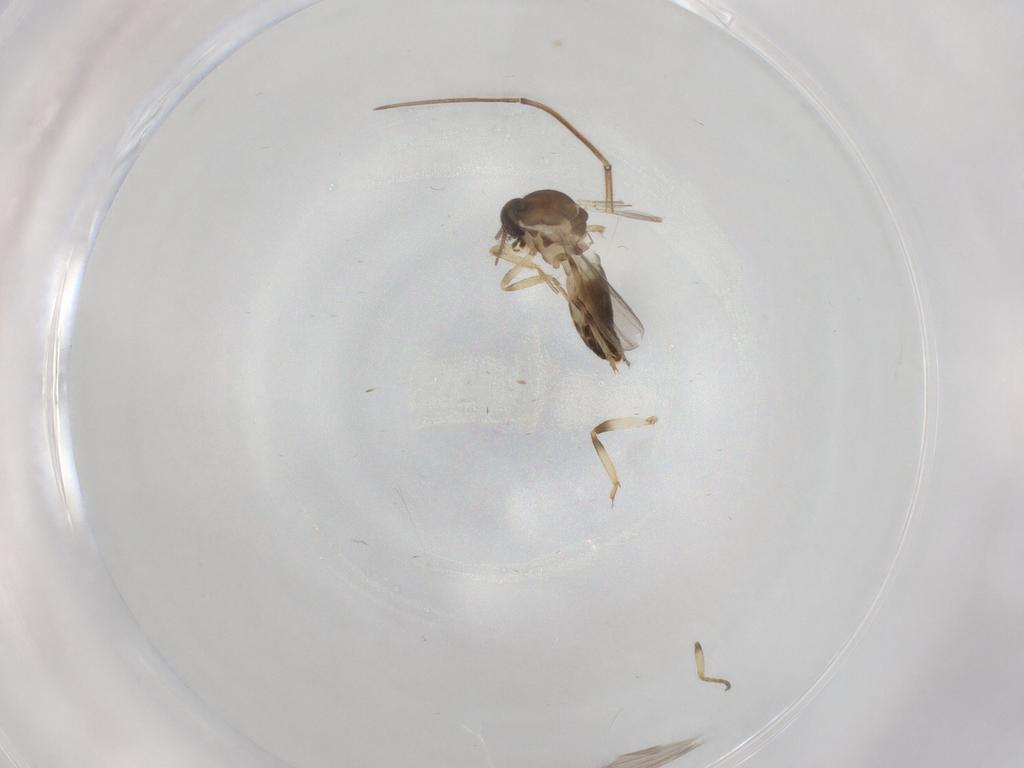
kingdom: Animalia
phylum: Arthropoda
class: Insecta
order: Diptera
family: Ceratopogonidae
